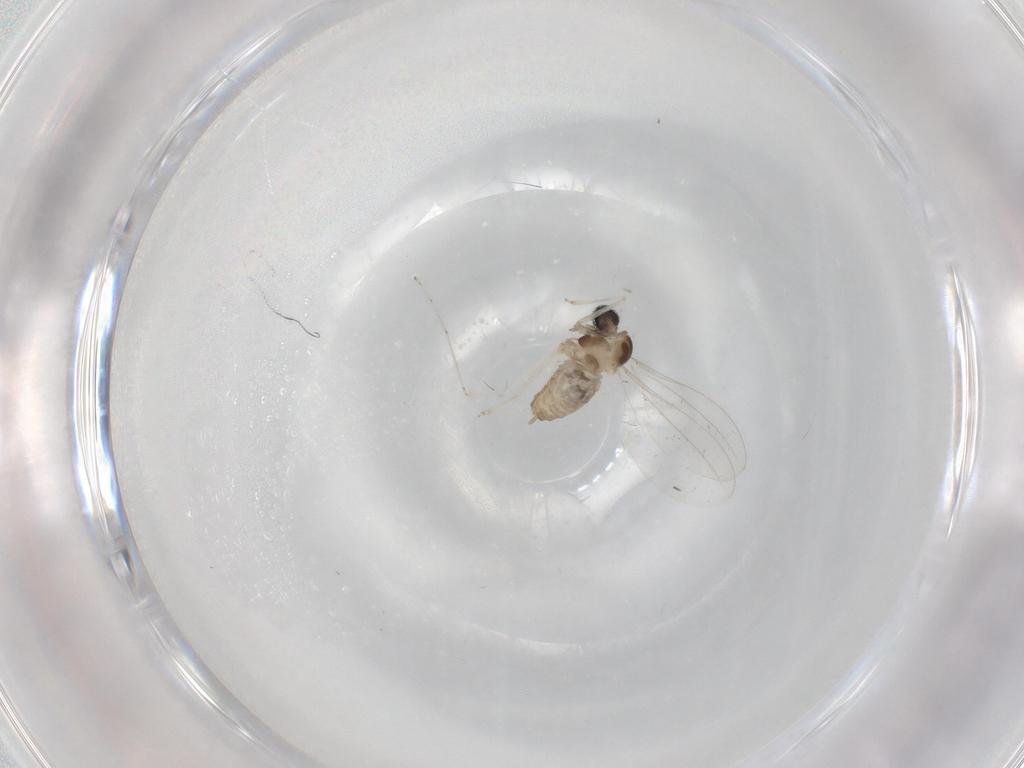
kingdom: Animalia
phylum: Arthropoda
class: Insecta
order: Diptera
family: Cecidomyiidae
